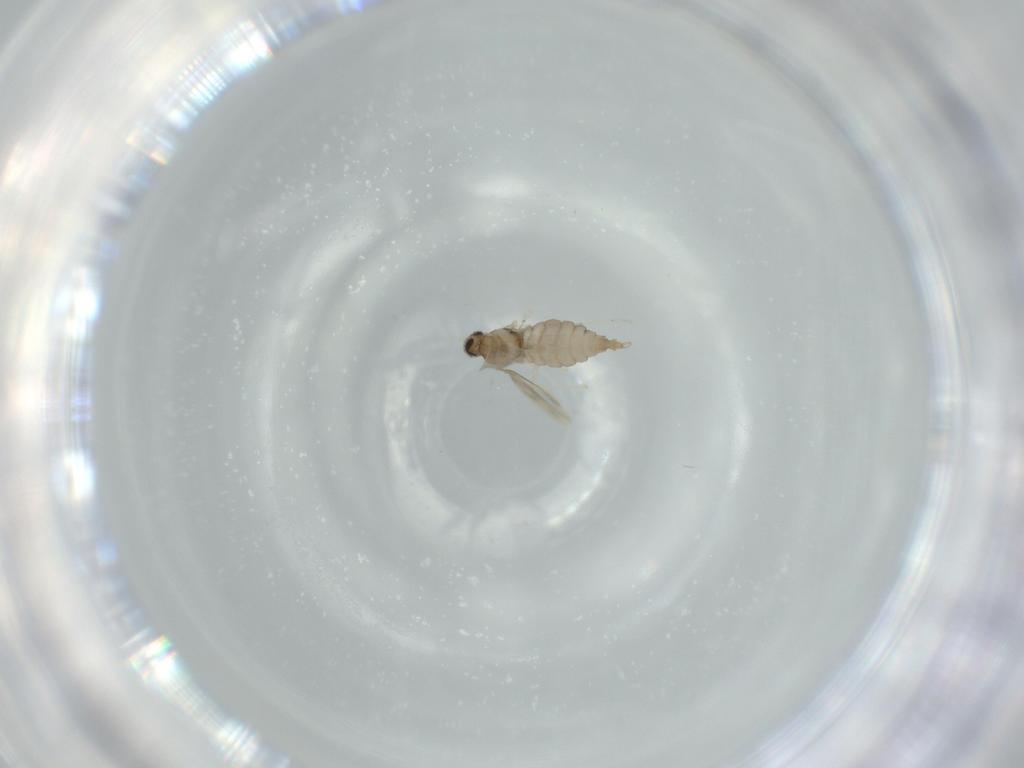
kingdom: Animalia
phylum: Arthropoda
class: Insecta
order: Diptera
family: Cecidomyiidae
